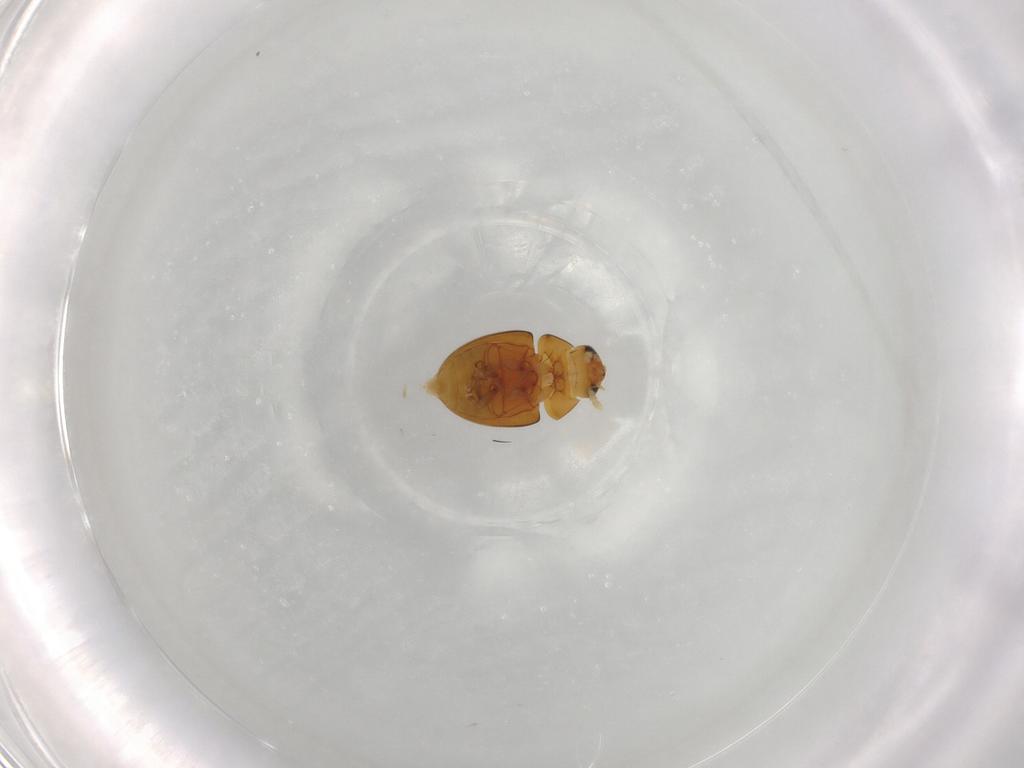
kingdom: Animalia
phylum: Arthropoda
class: Insecta
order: Coleoptera
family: Phalacridae
